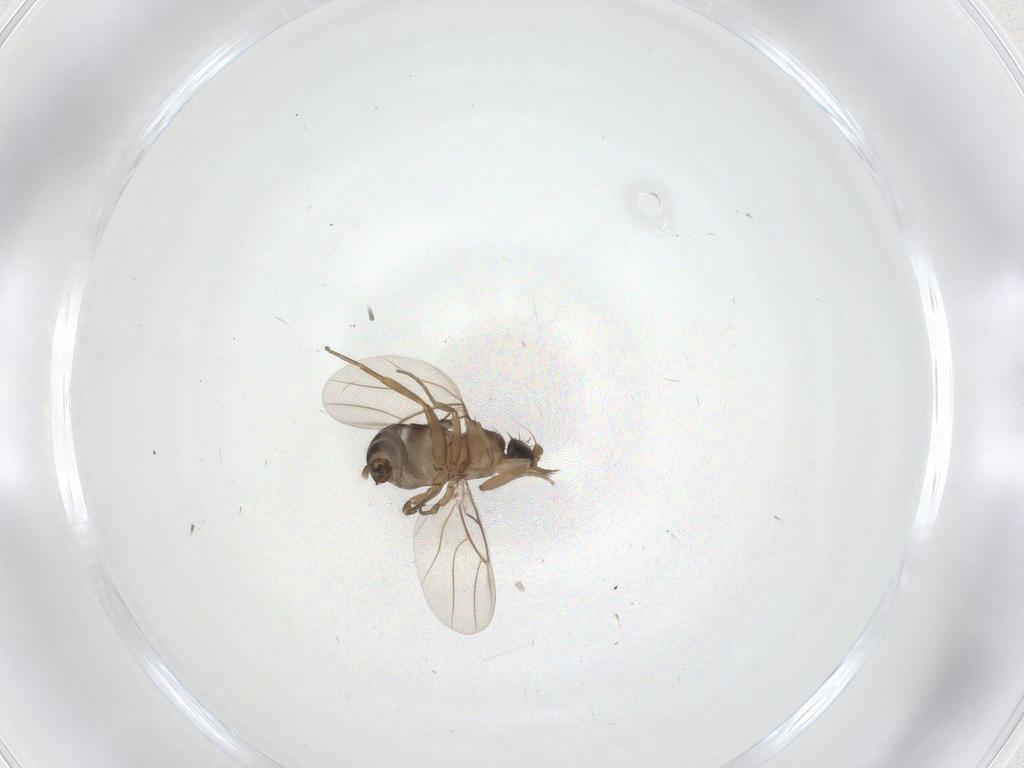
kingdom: Animalia
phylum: Arthropoda
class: Insecta
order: Diptera
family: Phoridae
